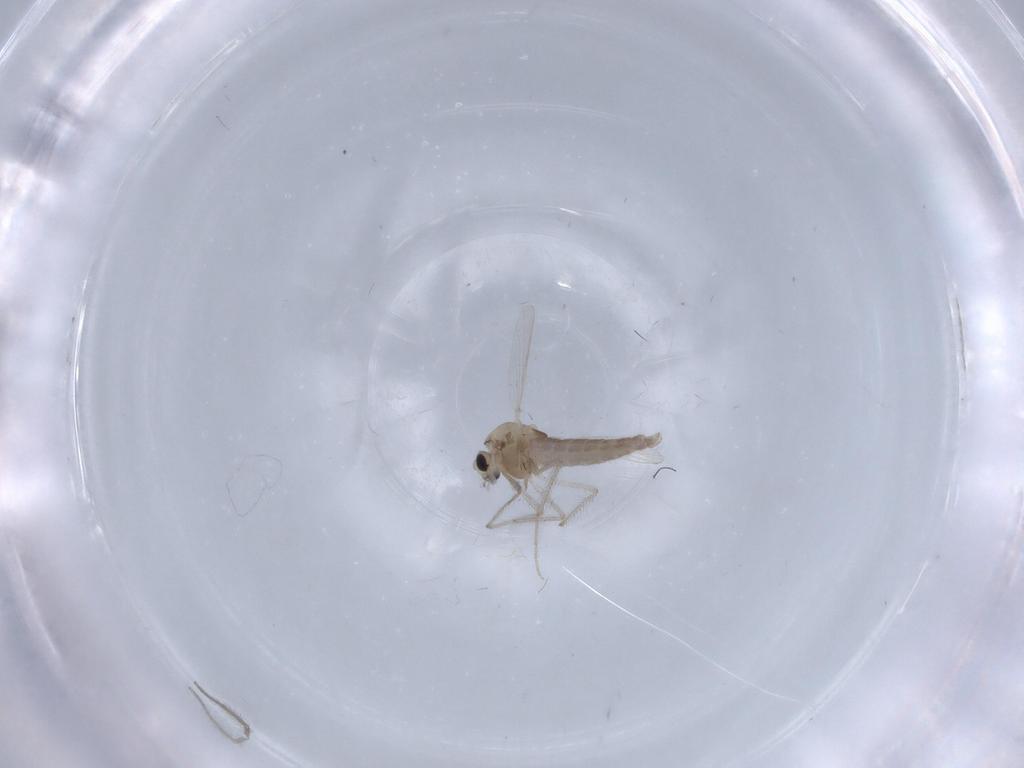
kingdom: Animalia
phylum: Arthropoda
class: Insecta
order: Diptera
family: Chironomidae
